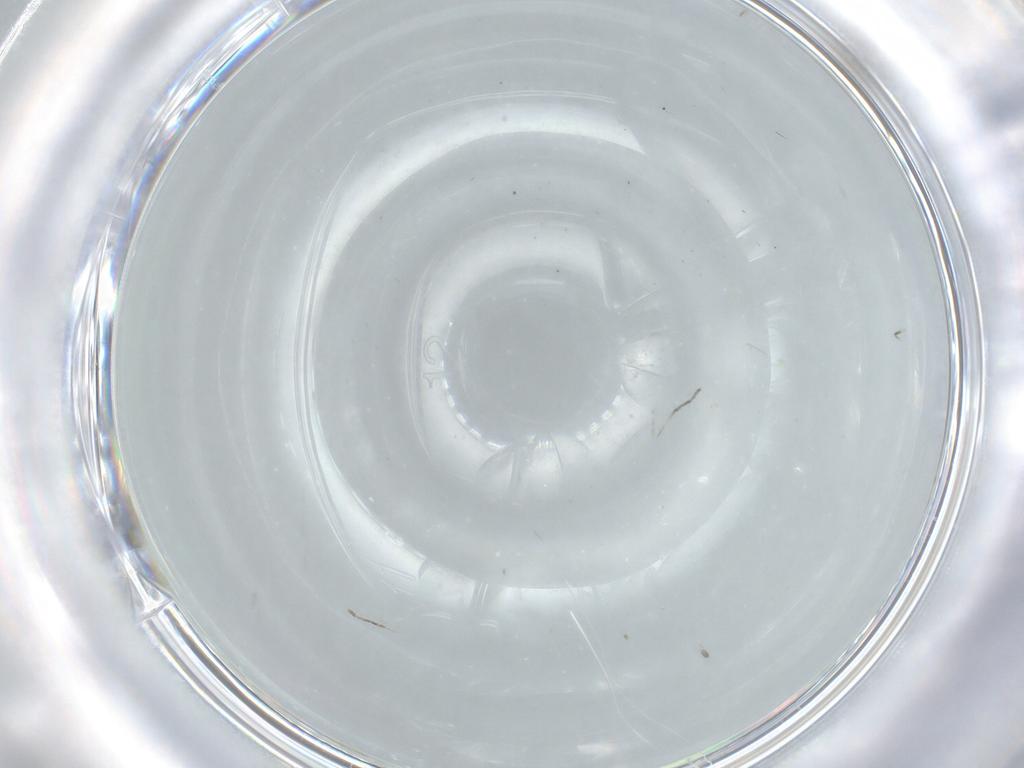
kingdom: Animalia
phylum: Arthropoda
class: Insecta
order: Diptera
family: Cecidomyiidae
